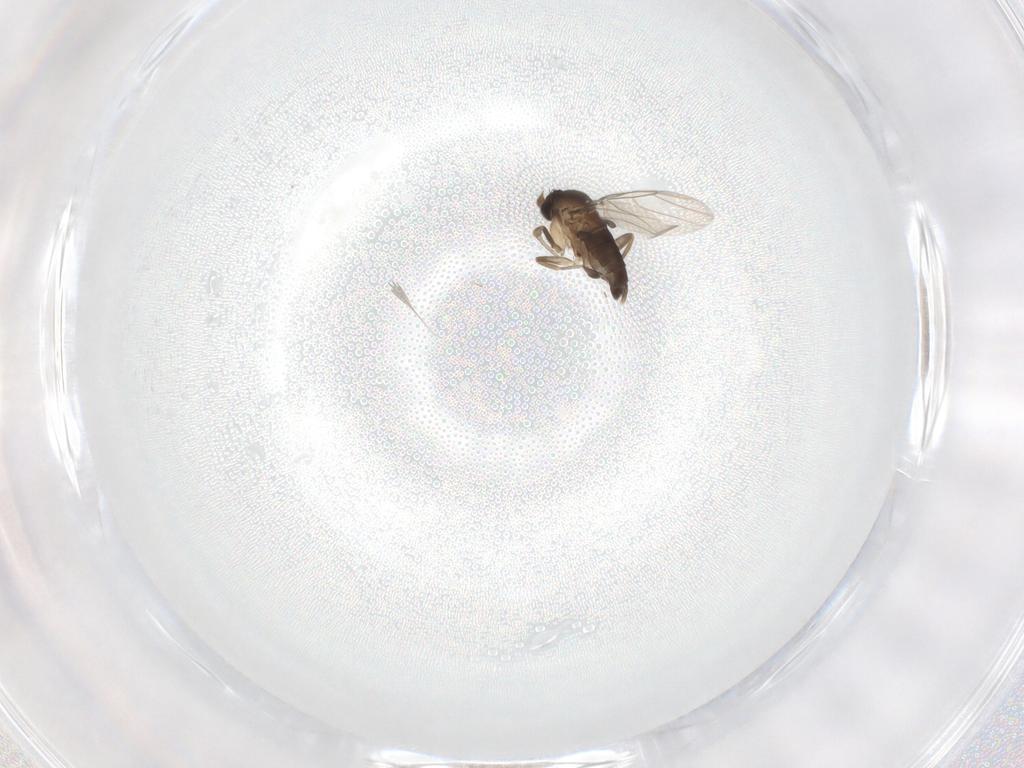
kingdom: Animalia
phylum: Arthropoda
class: Insecta
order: Diptera
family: Phoridae
